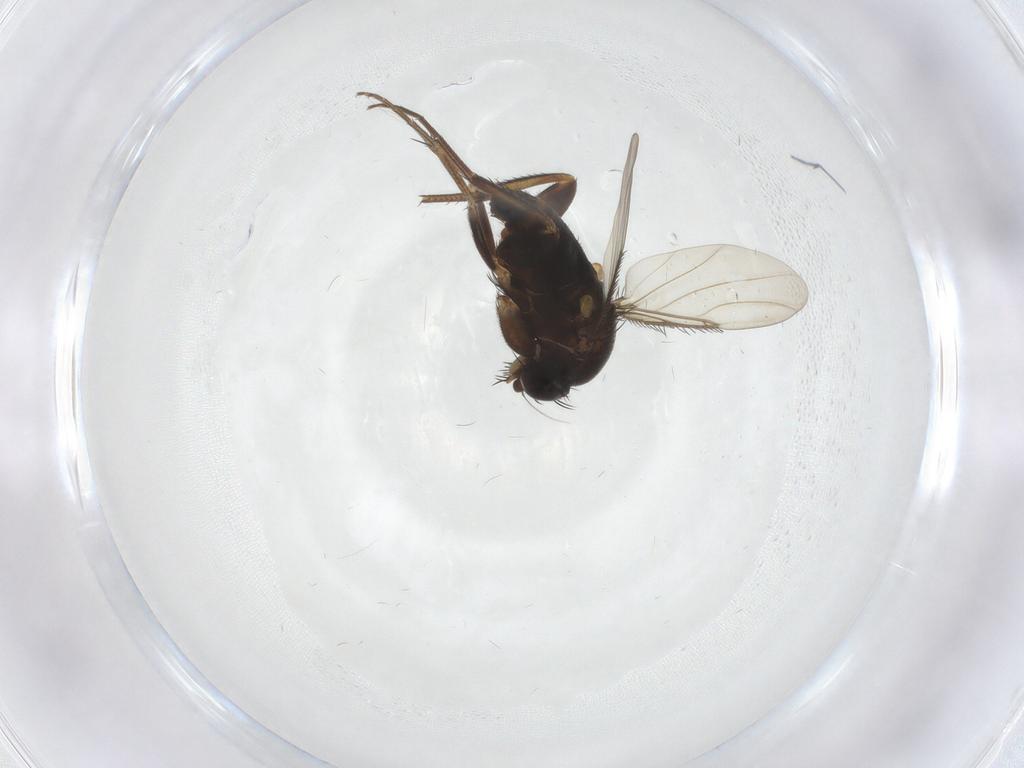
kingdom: Animalia
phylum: Arthropoda
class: Insecta
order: Diptera
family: Phoridae
